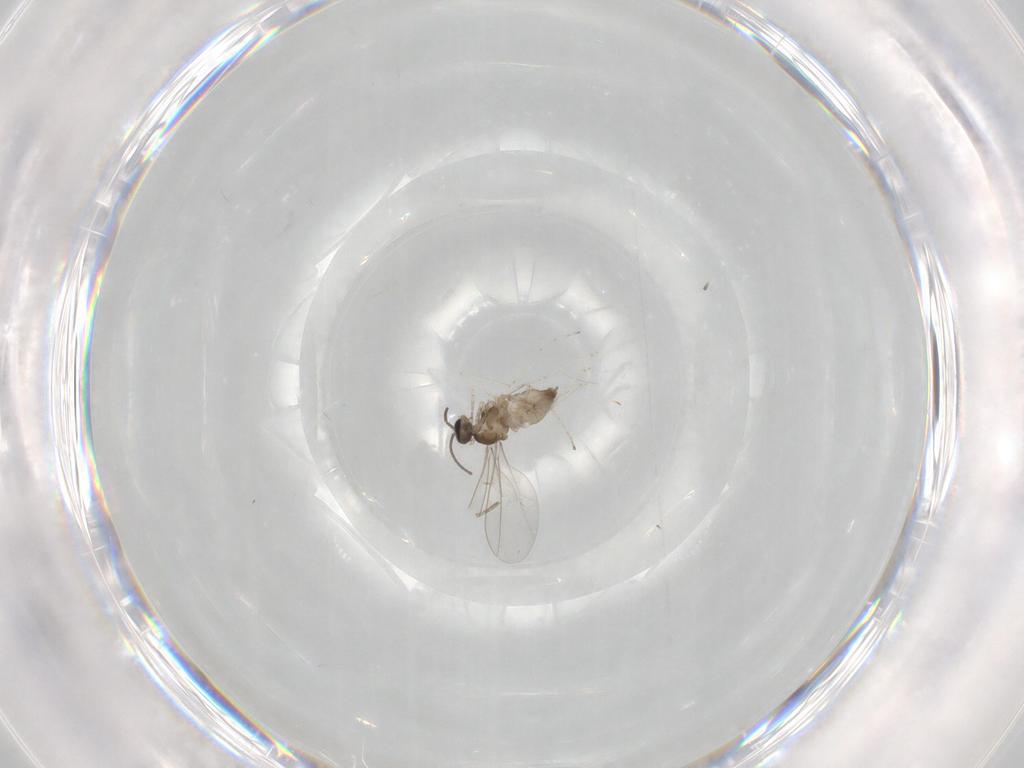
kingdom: Animalia
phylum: Arthropoda
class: Insecta
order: Diptera
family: Phoridae
